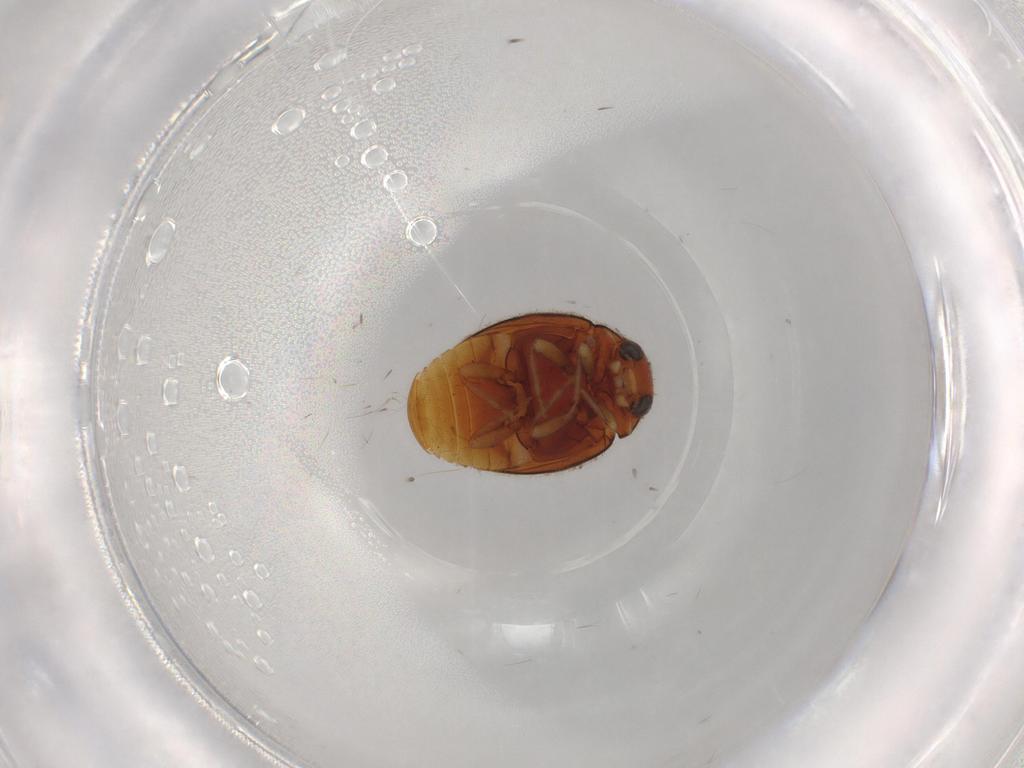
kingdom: Animalia
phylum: Arthropoda
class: Insecta
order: Coleoptera
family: Coccinellidae
